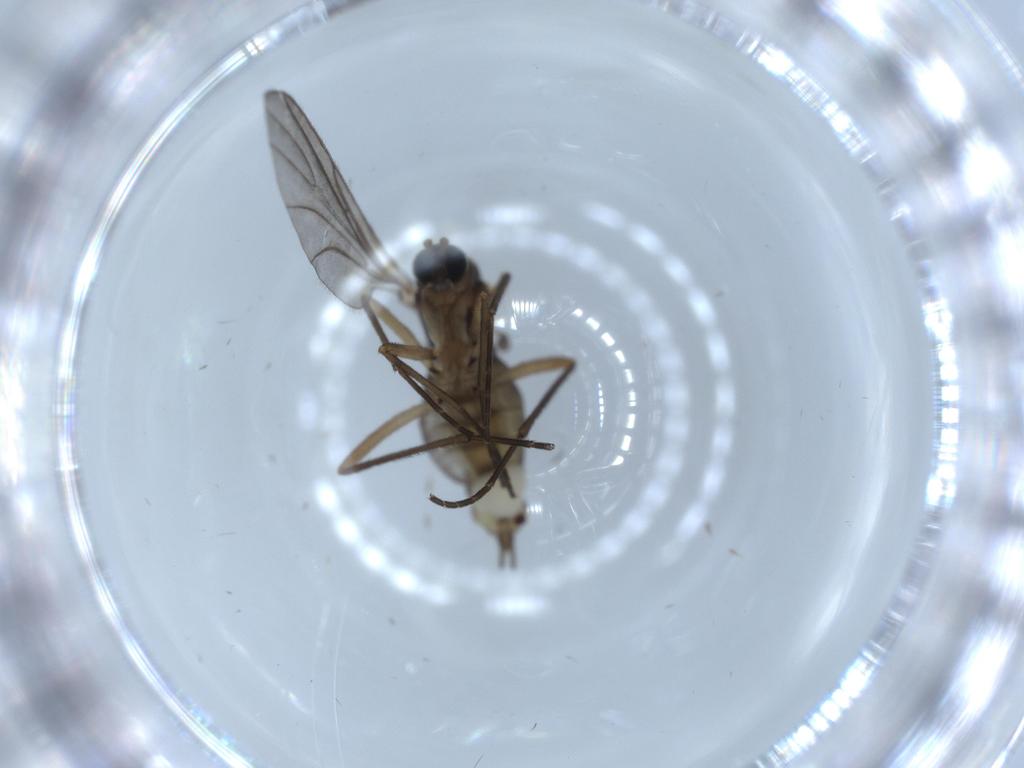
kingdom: Animalia
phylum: Arthropoda
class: Insecta
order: Diptera
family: Sciaridae
